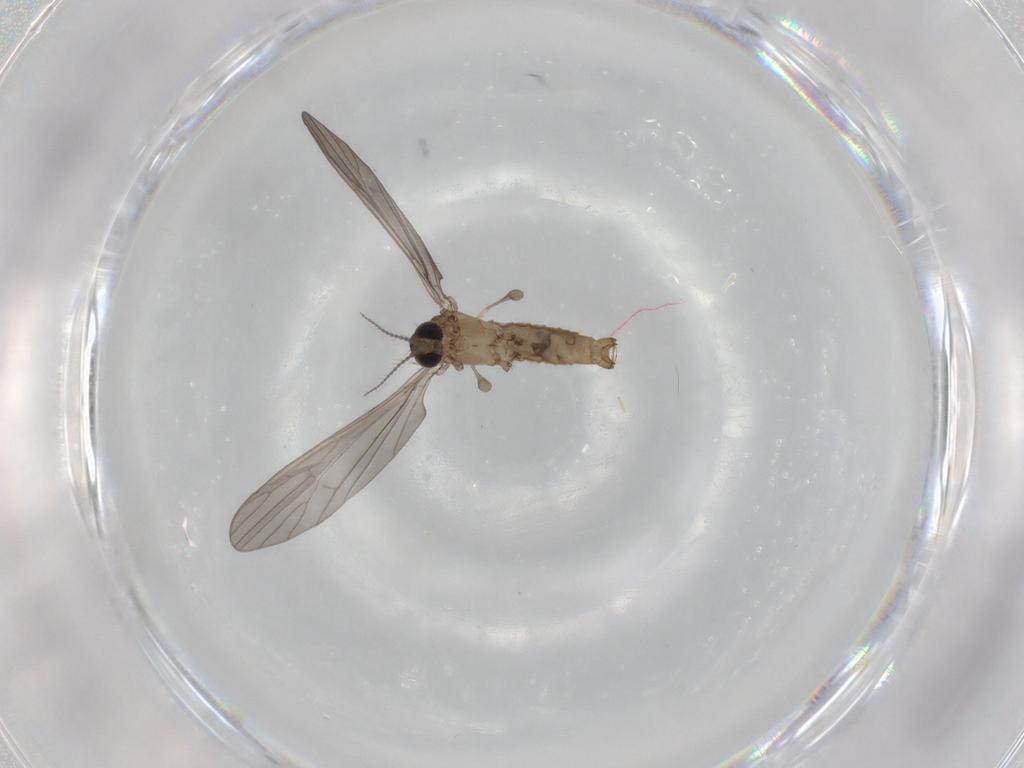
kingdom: Animalia
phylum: Arthropoda
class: Insecta
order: Diptera
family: Limoniidae
